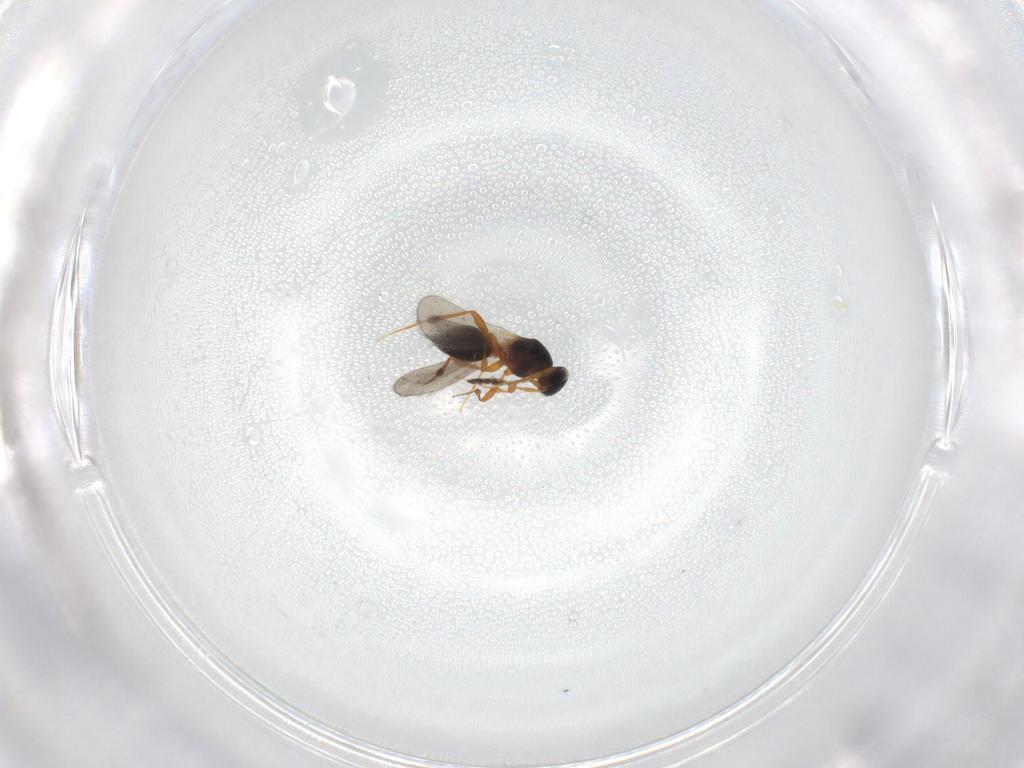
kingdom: Animalia
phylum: Arthropoda
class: Insecta
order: Hymenoptera
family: Platygastridae
